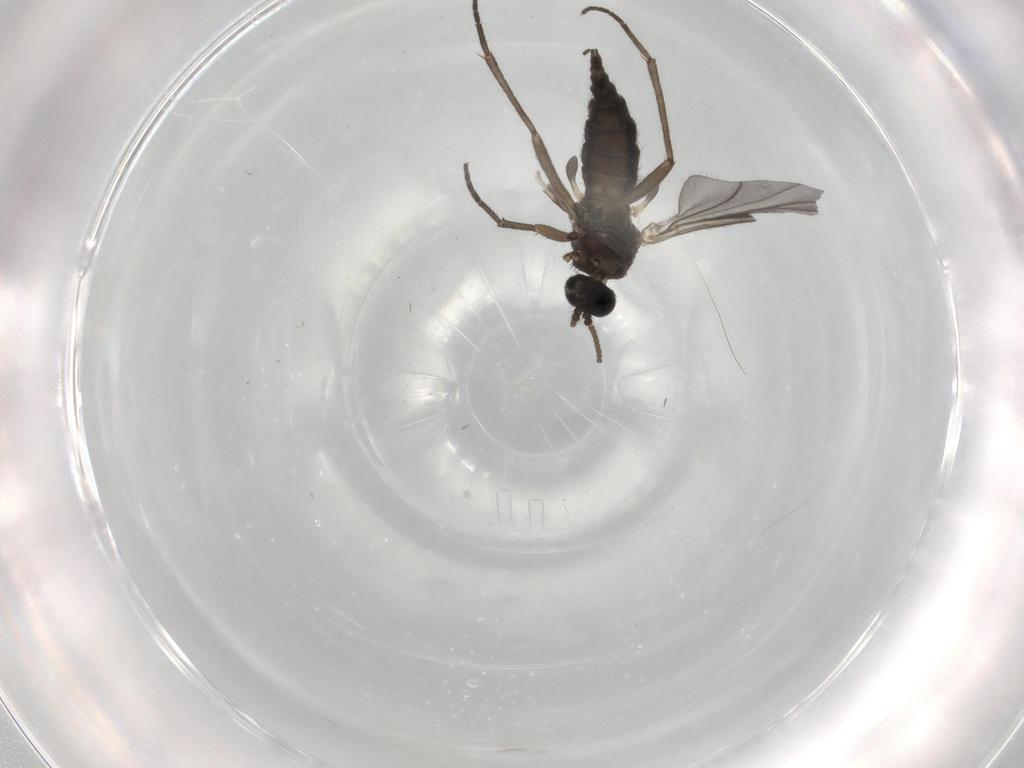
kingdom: Animalia
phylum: Arthropoda
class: Insecta
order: Diptera
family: Sciaridae
